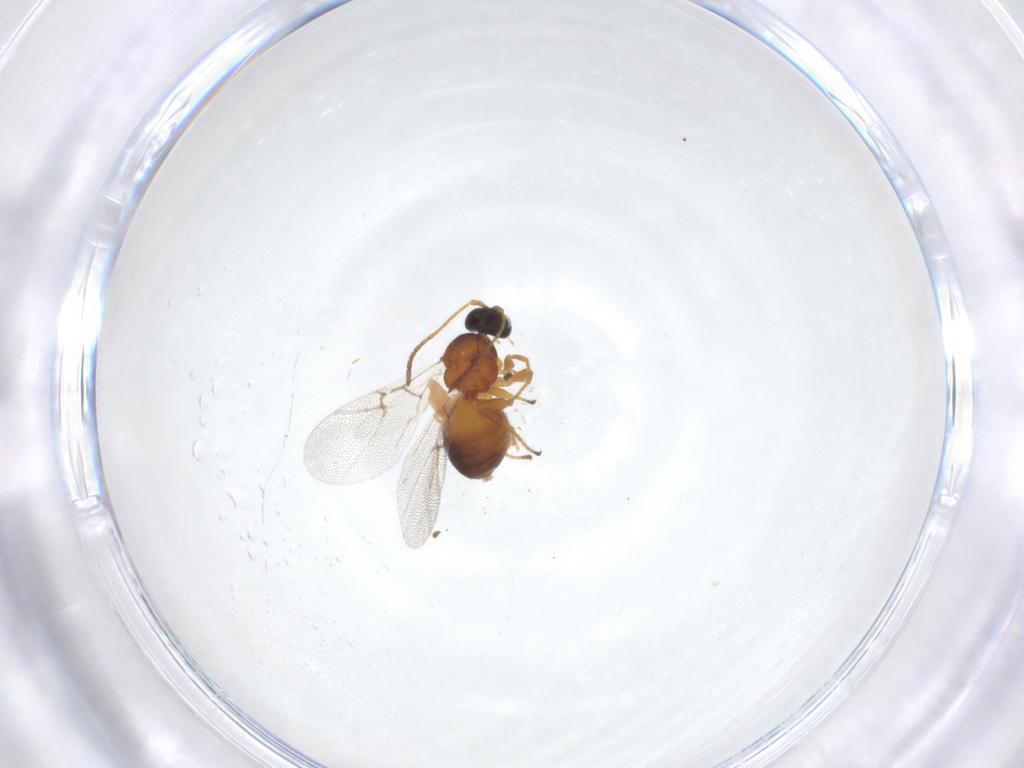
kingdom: Animalia
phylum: Arthropoda
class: Insecta
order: Hymenoptera
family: Cynipidae
